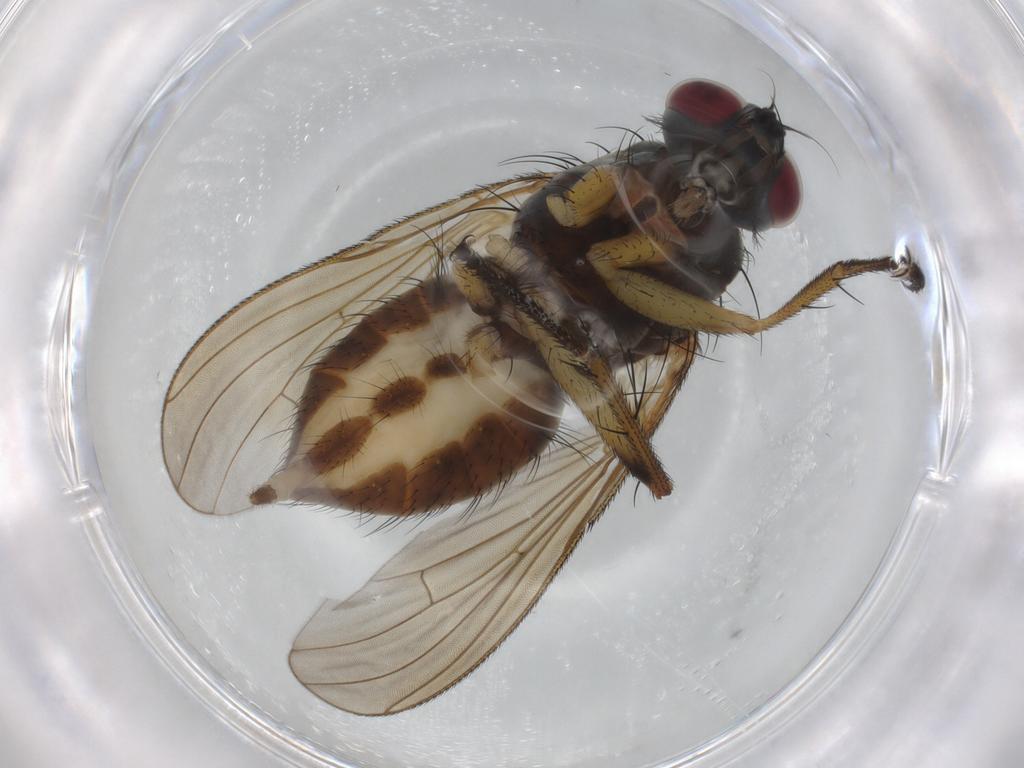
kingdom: Animalia
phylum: Arthropoda
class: Insecta
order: Diptera
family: Muscidae
